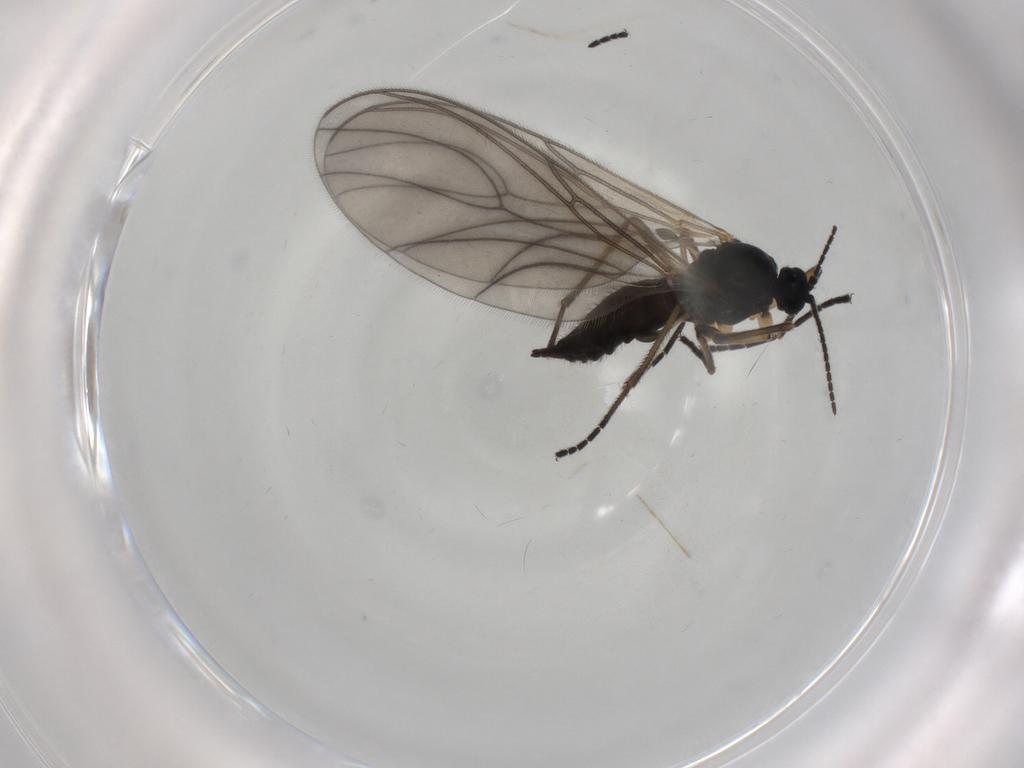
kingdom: Animalia
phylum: Arthropoda
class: Insecta
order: Diptera
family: Sciaridae
